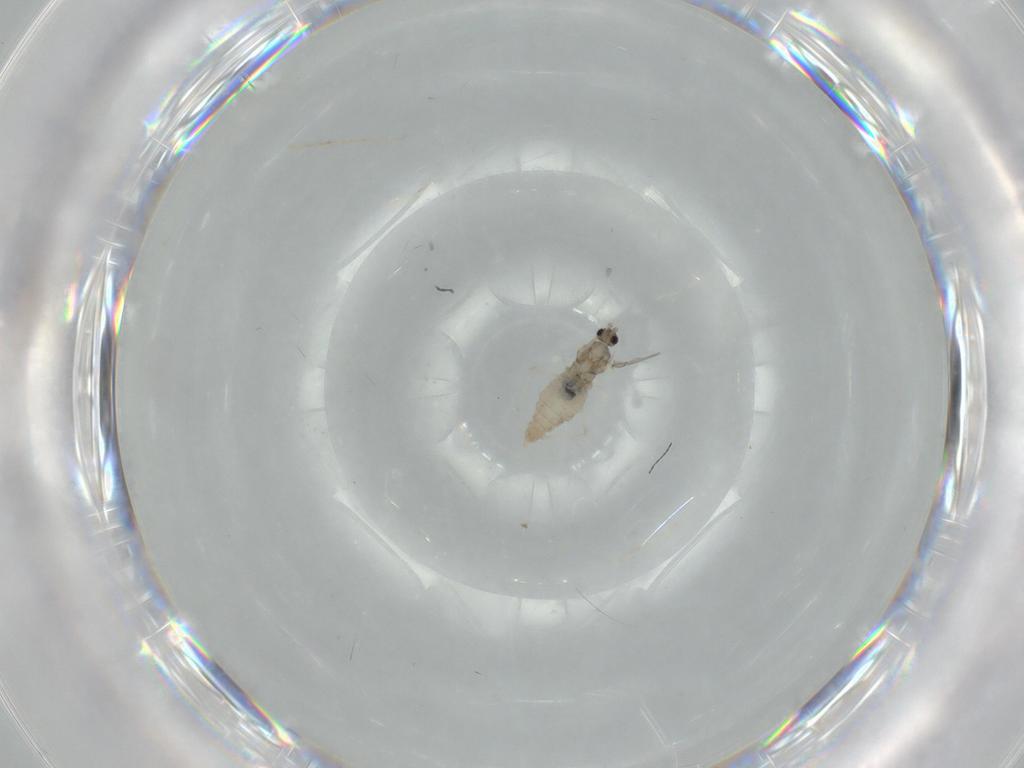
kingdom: Animalia
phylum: Arthropoda
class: Insecta
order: Diptera
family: Cecidomyiidae
